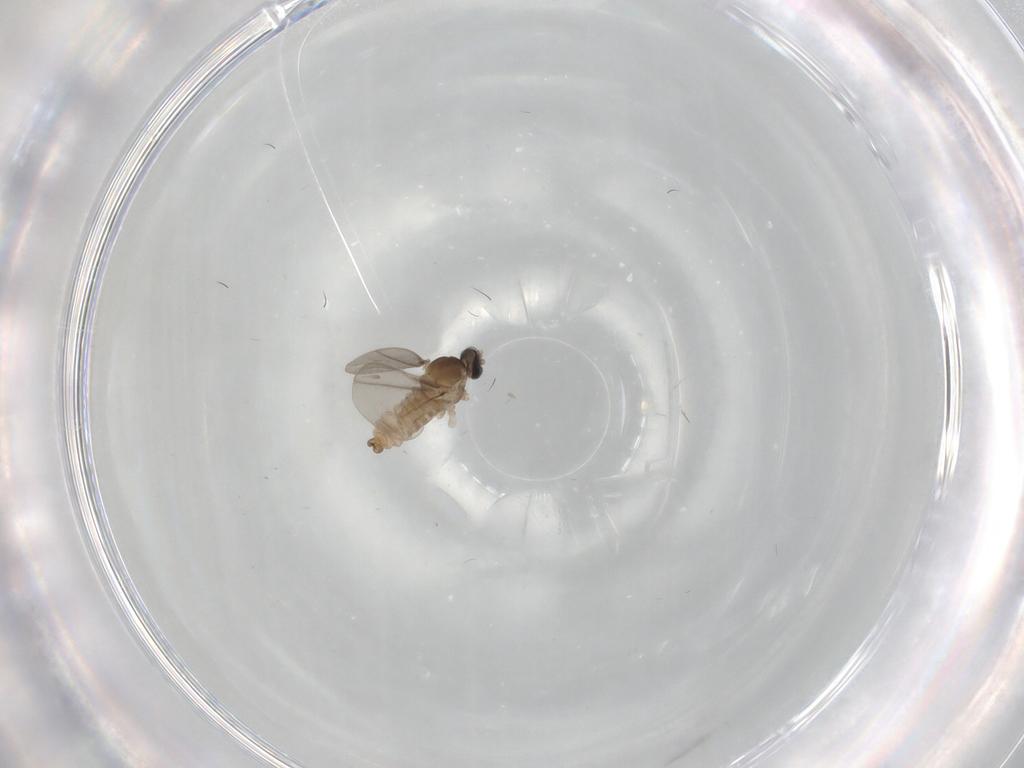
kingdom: Animalia
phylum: Arthropoda
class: Insecta
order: Diptera
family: Cecidomyiidae
